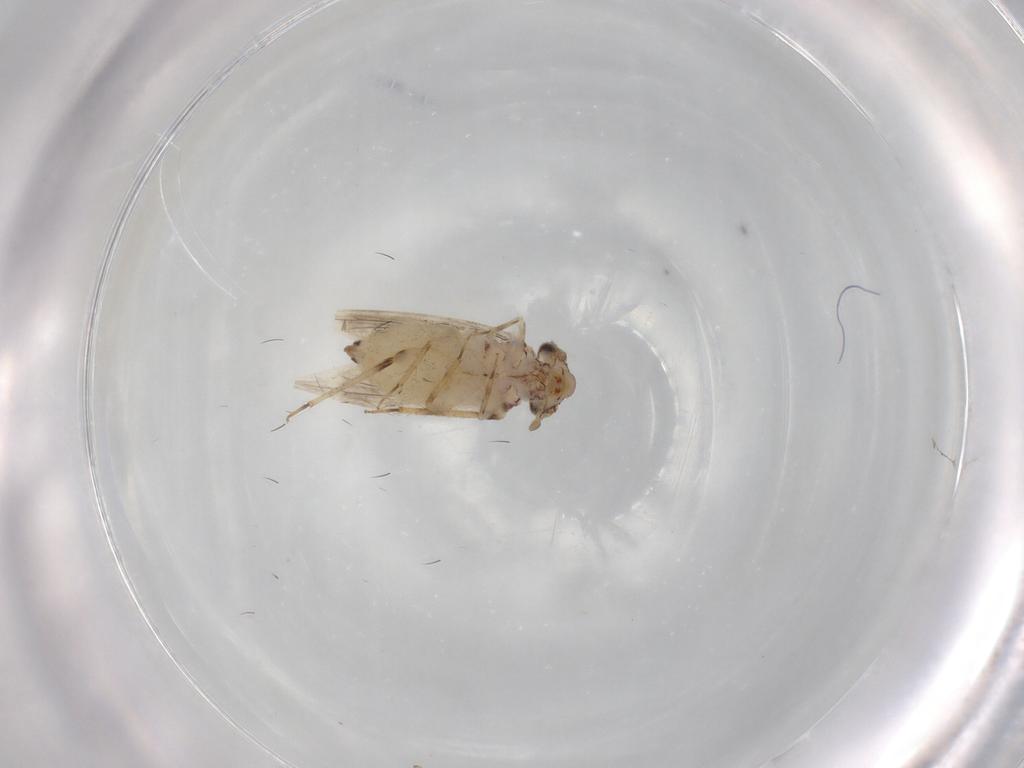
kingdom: Animalia
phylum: Arthropoda
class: Insecta
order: Psocodea
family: Lepidopsocidae
